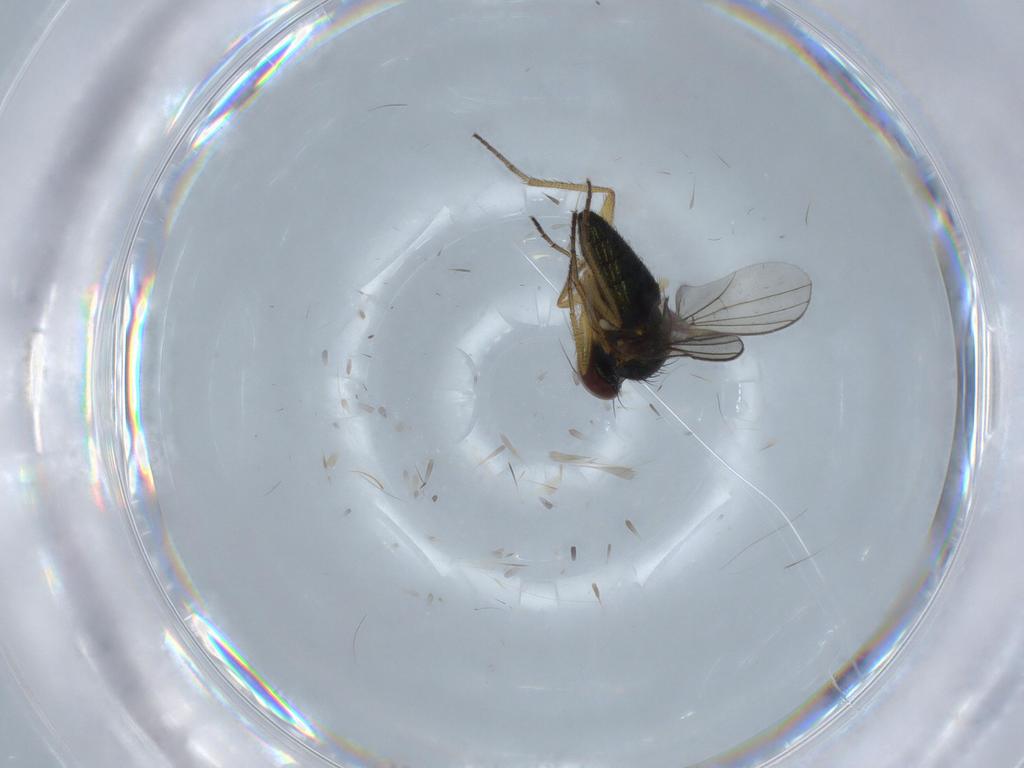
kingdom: Animalia
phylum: Arthropoda
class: Insecta
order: Diptera
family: Dolichopodidae
